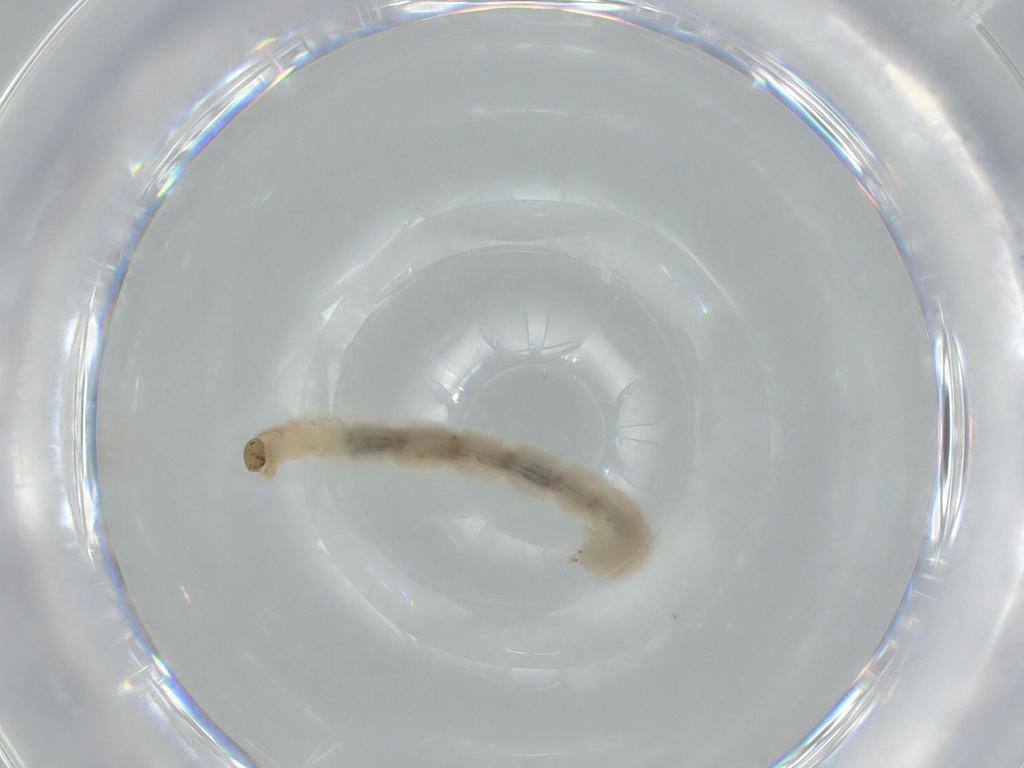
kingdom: Animalia
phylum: Arthropoda
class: Insecta
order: Diptera
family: Chironomidae
